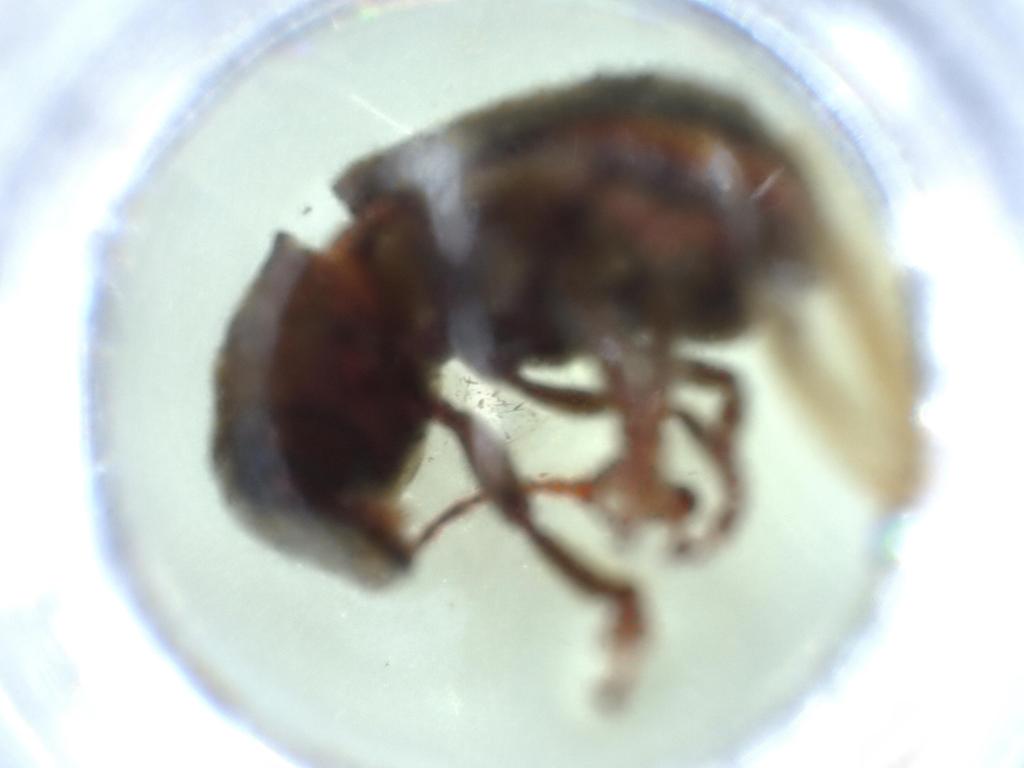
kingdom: Animalia
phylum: Arthropoda
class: Insecta
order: Coleoptera
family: Anthribidae
